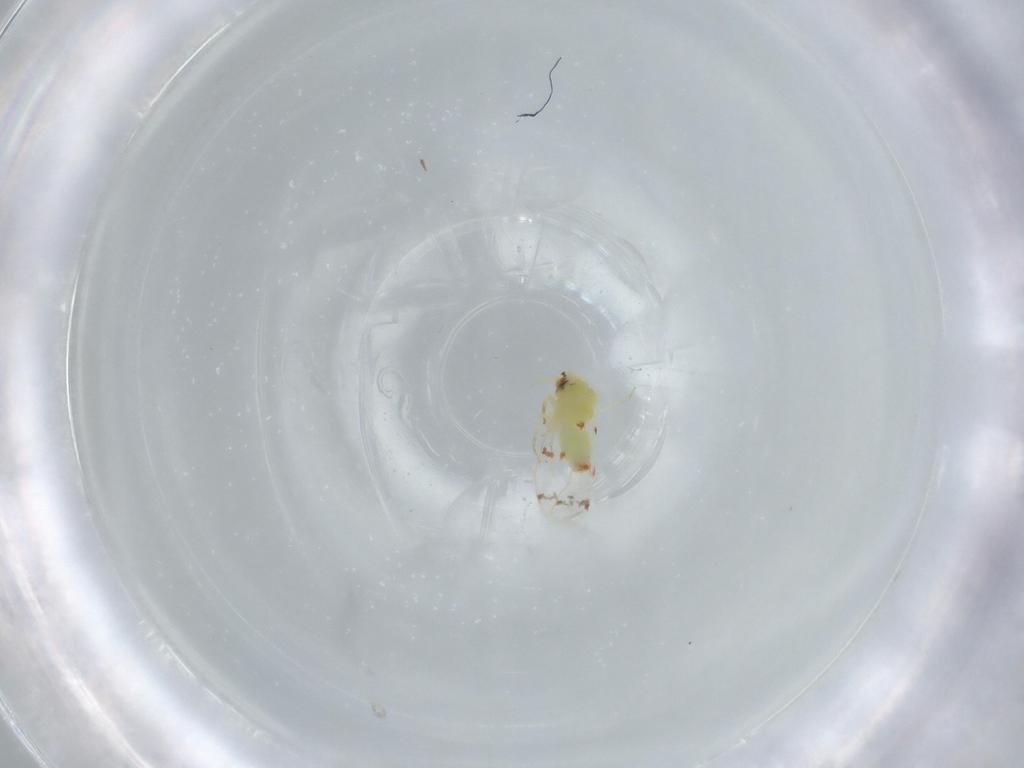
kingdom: Animalia
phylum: Arthropoda
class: Insecta
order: Hemiptera
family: Aleyrodidae
